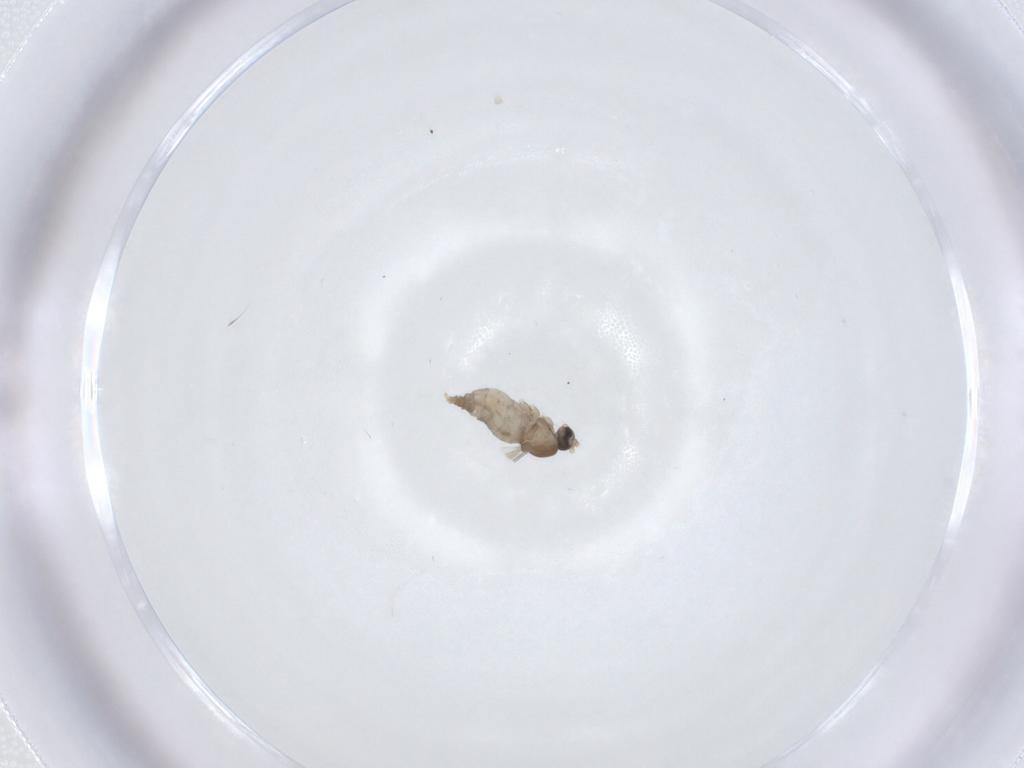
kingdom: Animalia
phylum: Arthropoda
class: Insecta
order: Diptera
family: Cecidomyiidae
